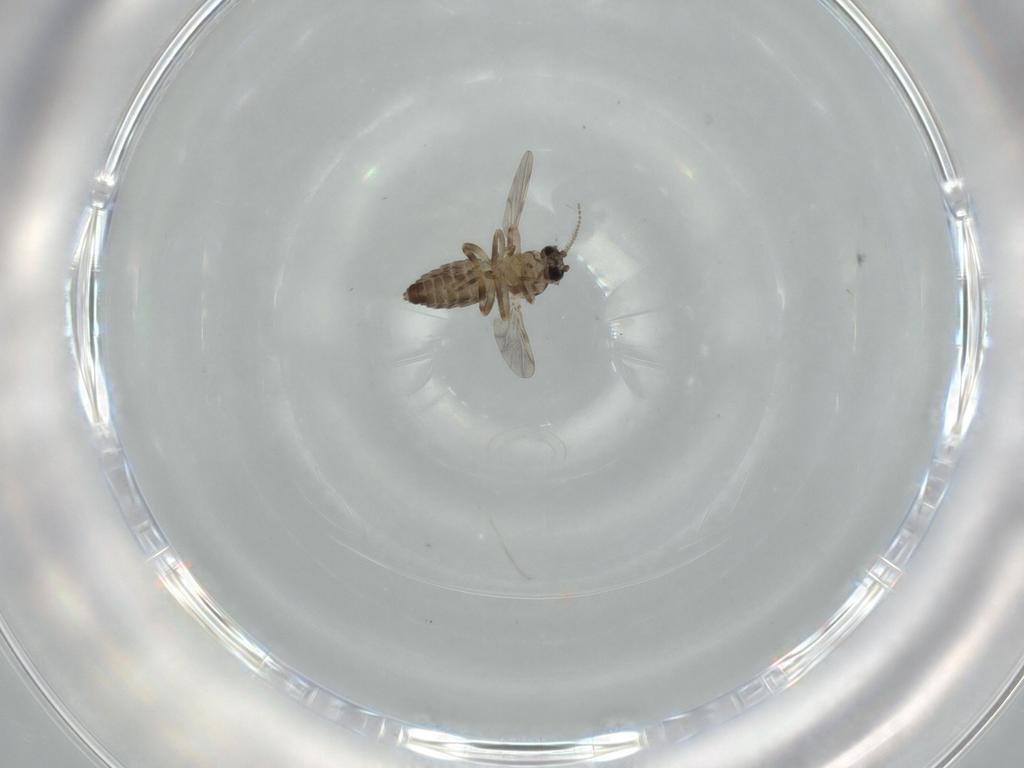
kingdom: Animalia
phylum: Arthropoda
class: Insecta
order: Diptera
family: Ceratopogonidae
